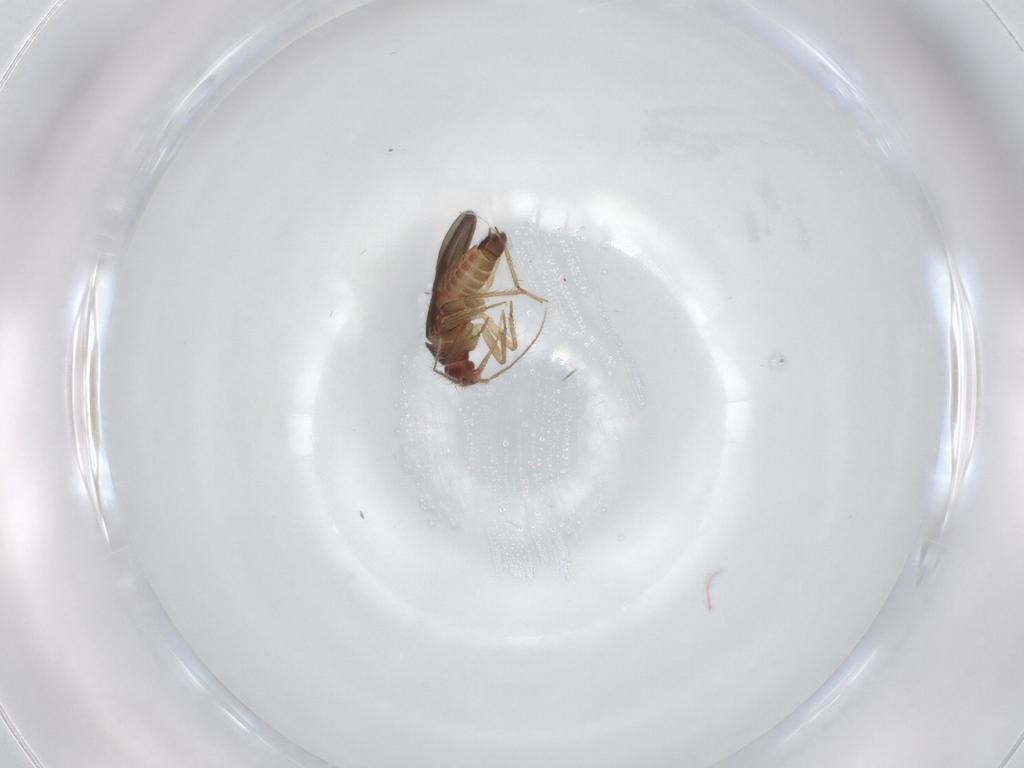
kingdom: Animalia
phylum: Arthropoda
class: Insecta
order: Hemiptera
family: Ceratocombidae
